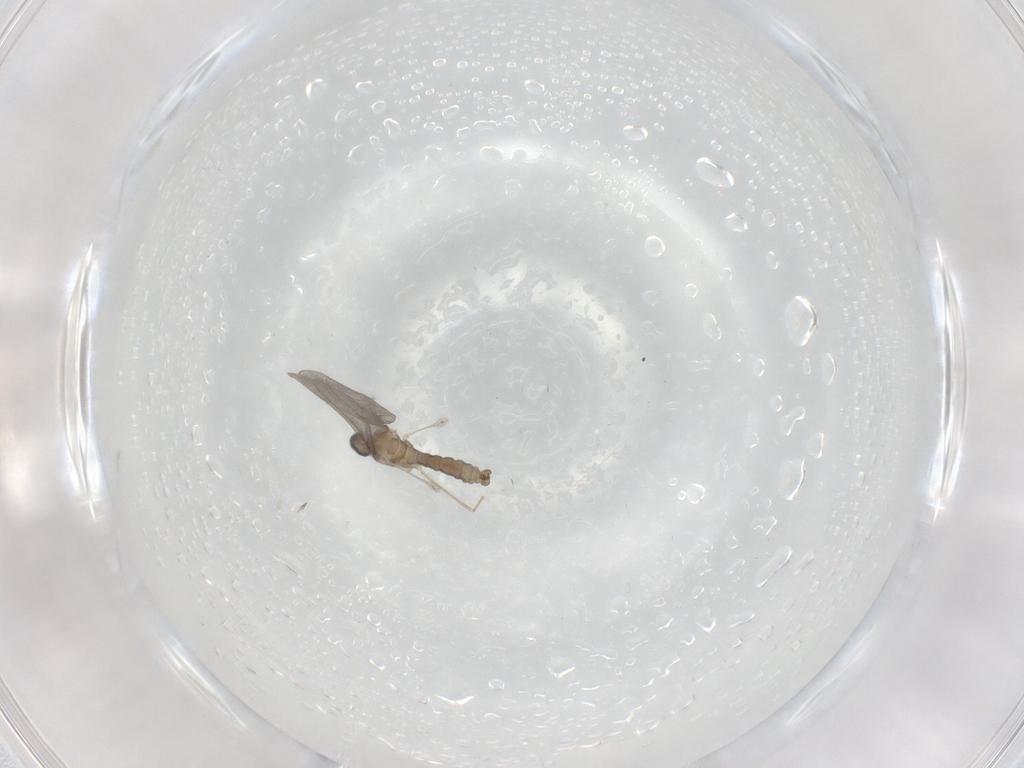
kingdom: Animalia
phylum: Arthropoda
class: Insecta
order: Diptera
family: Cecidomyiidae
